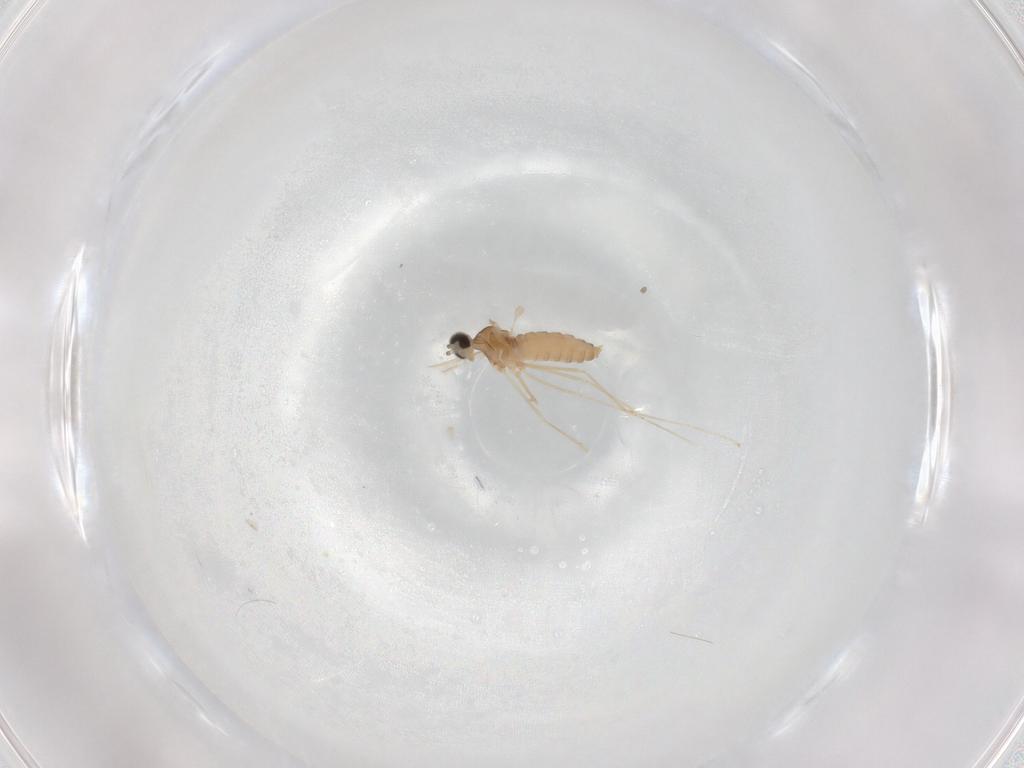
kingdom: Animalia
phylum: Arthropoda
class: Insecta
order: Diptera
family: Cecidomyiidae
